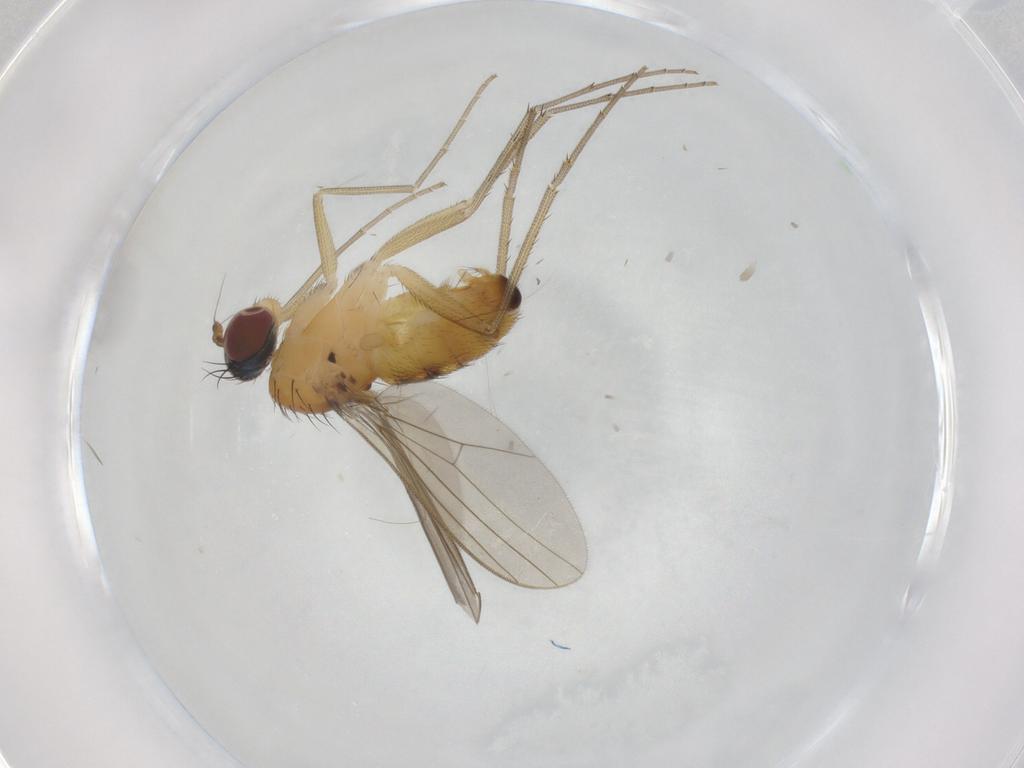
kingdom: Animalia
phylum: Arthropoda
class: Insecta
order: Diptera
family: Dolichopodidae
